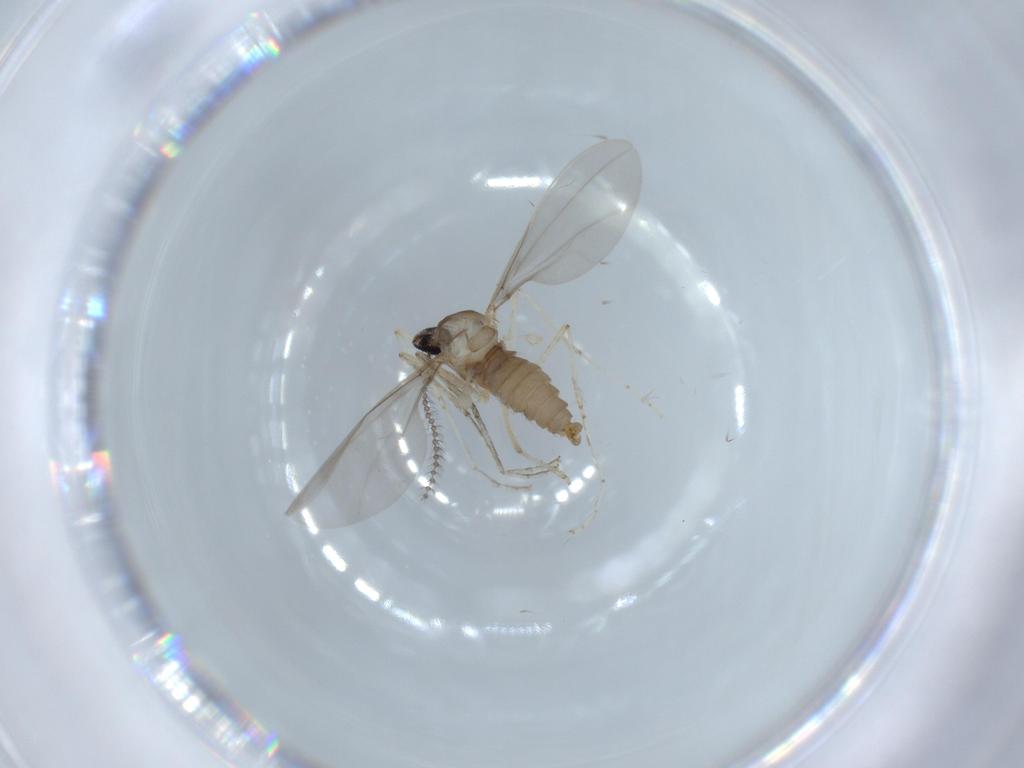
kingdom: Animalia
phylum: Arthropoda
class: Insecta
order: Diptera
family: Cecidomyiidae
